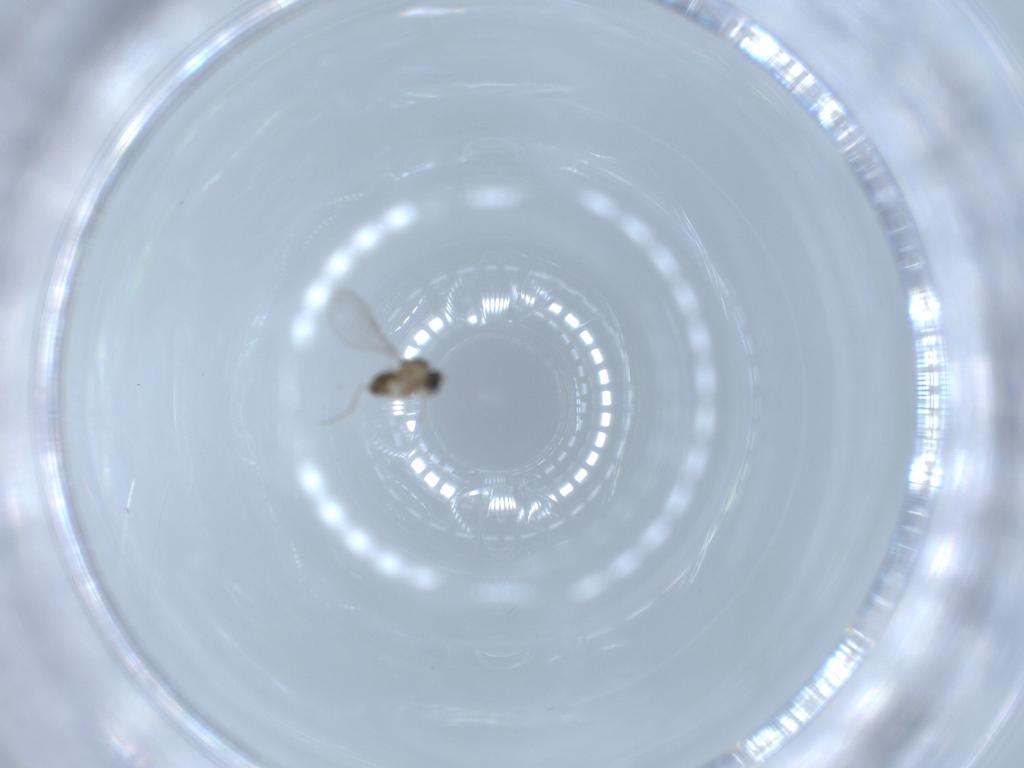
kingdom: Animalia
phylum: Arthropoda
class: Insecta
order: Diptera
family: Cecidomyiidae
